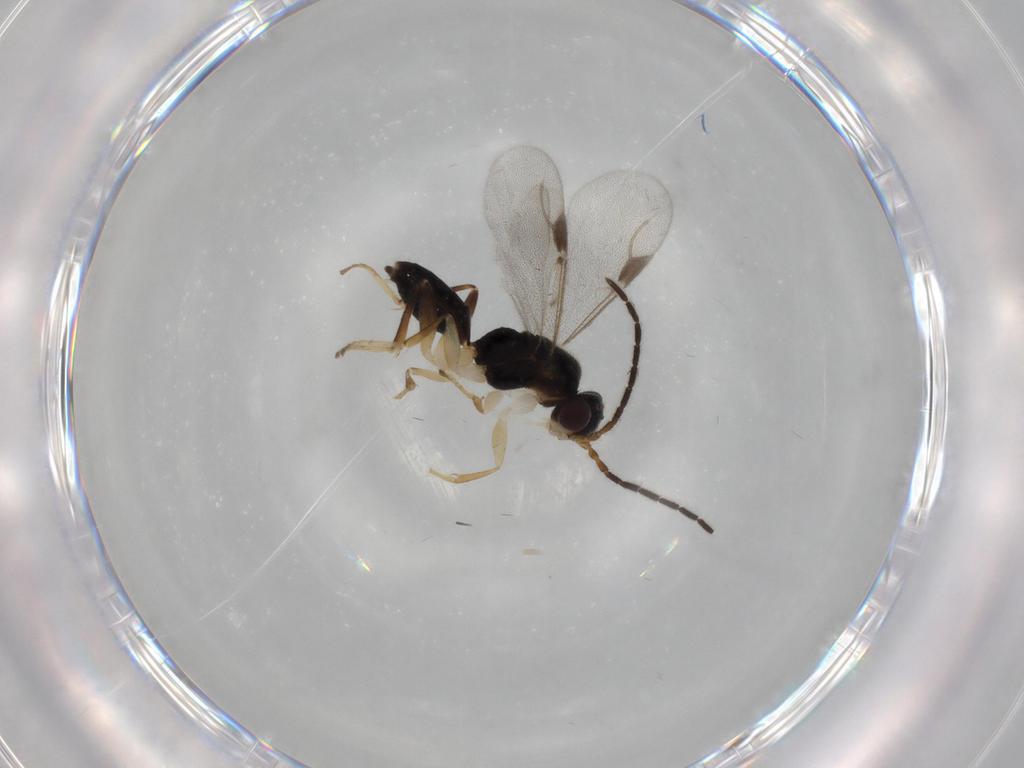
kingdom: Animalia
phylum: Arthropoda
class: Insecta
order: Hymenoptera
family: Dryinidae
